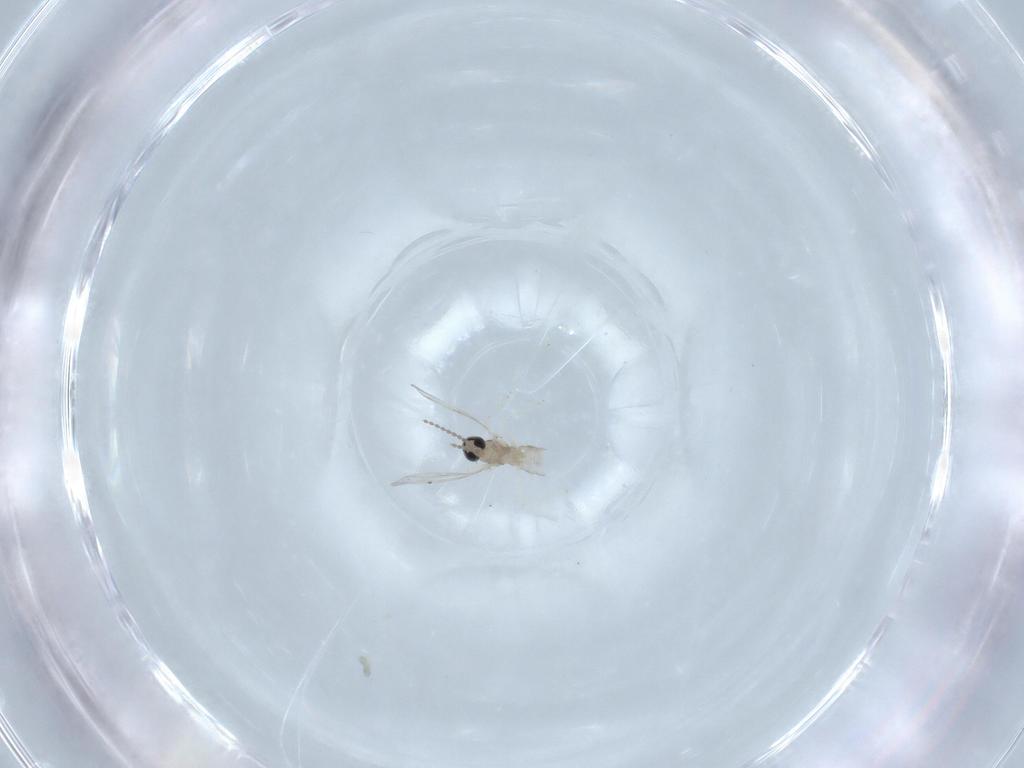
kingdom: Animalia
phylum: Arthropoda
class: Insecta
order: Diptera
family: Cecidomyiidae
